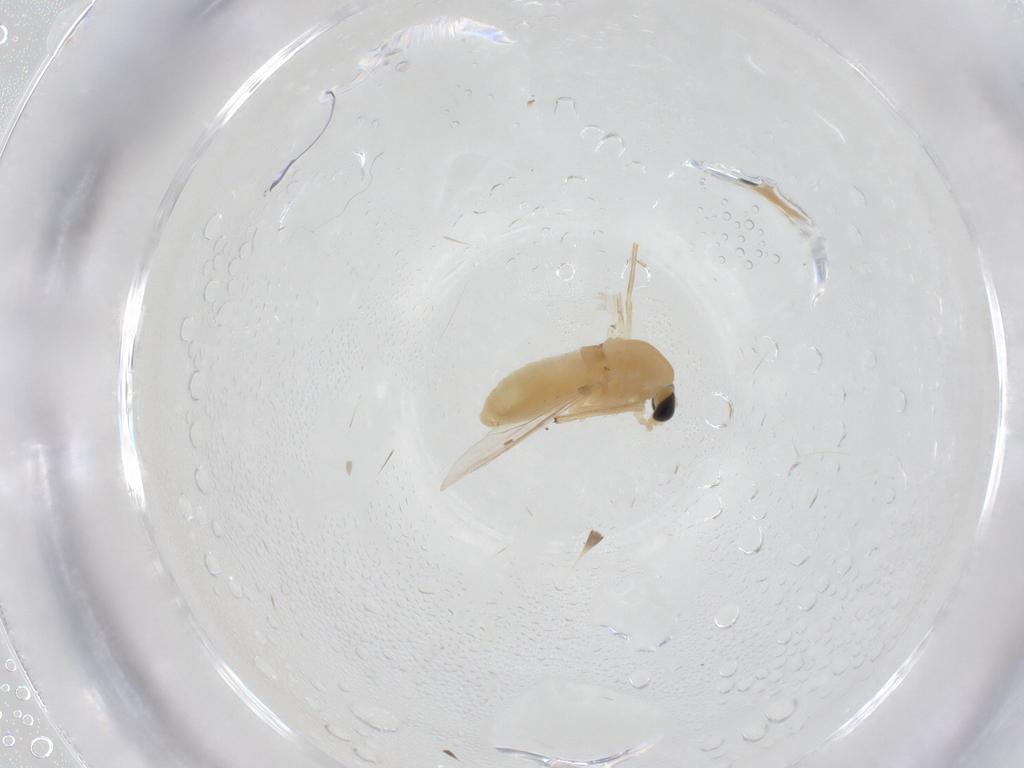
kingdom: Animalia
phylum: Arthropoda
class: Insecta
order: Diptera
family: Chironomidae
